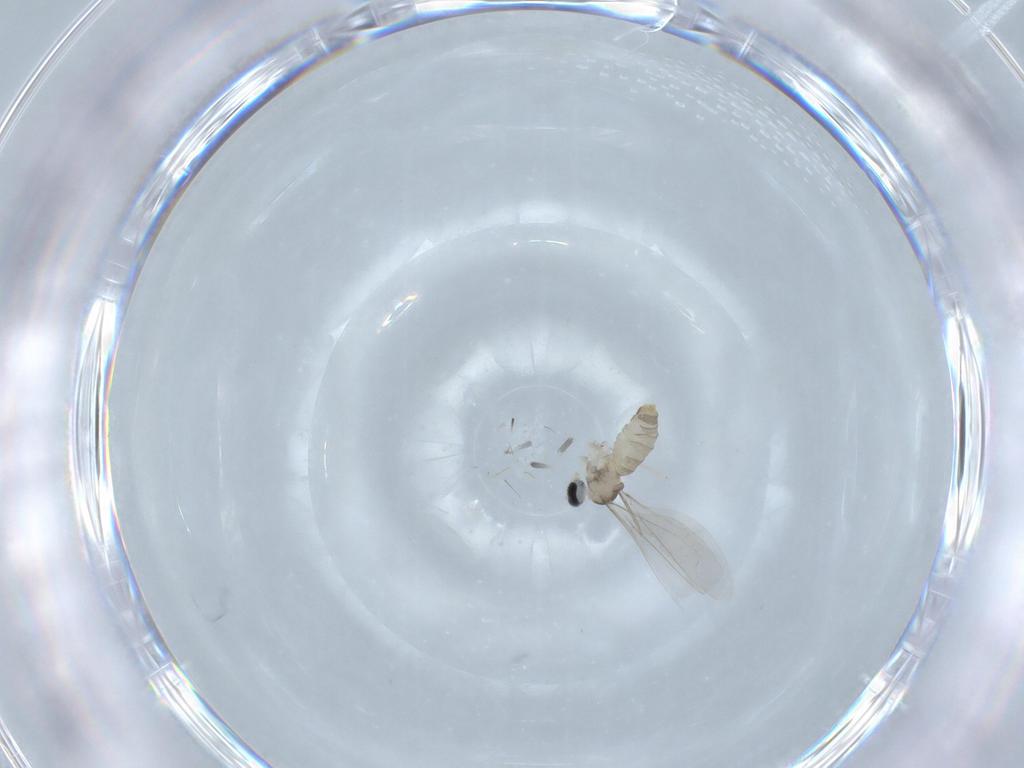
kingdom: Animalia
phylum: Arthropoda
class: Insecta
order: Diptera
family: Cecidomyiidae
